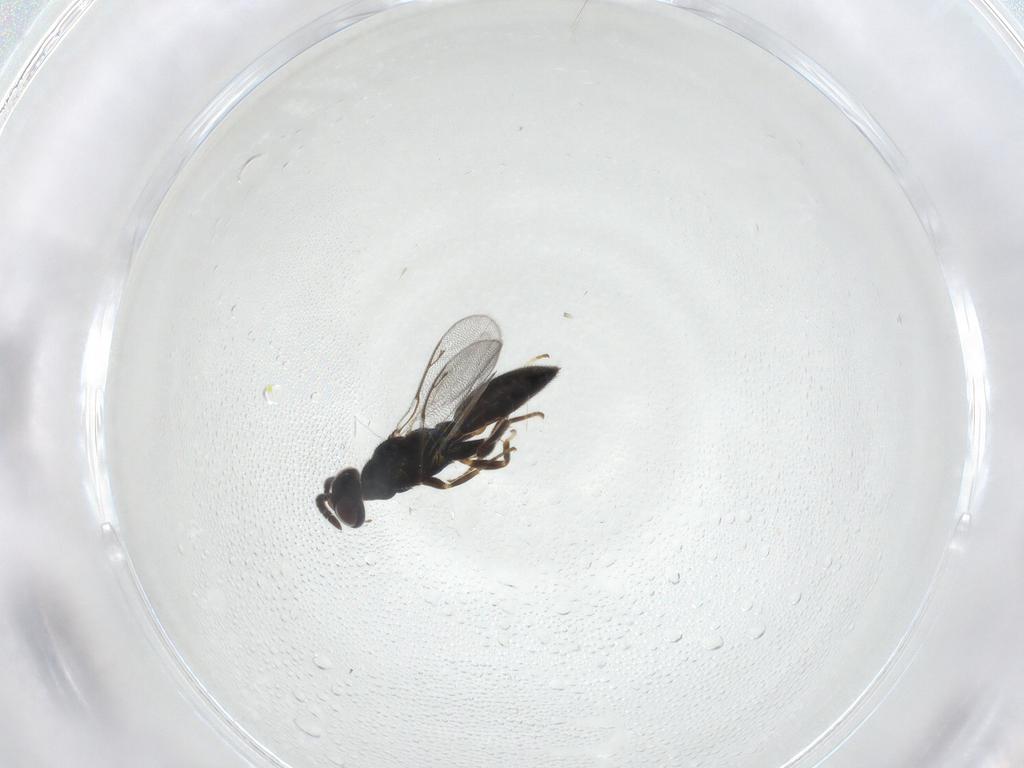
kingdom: Animalia
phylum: Arthropoda
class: Insecta
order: Hymenoptera
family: Cleonyminae
